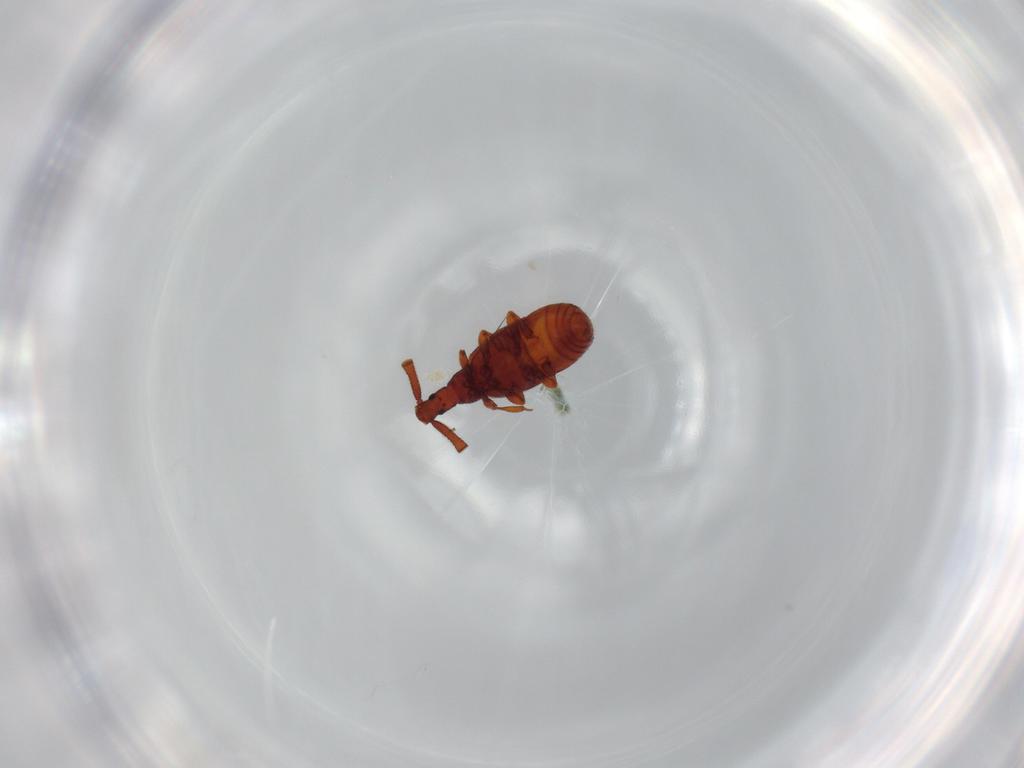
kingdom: Animalia
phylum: Arthropoda
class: Insecta
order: Coleoptera
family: Staphylinidae
